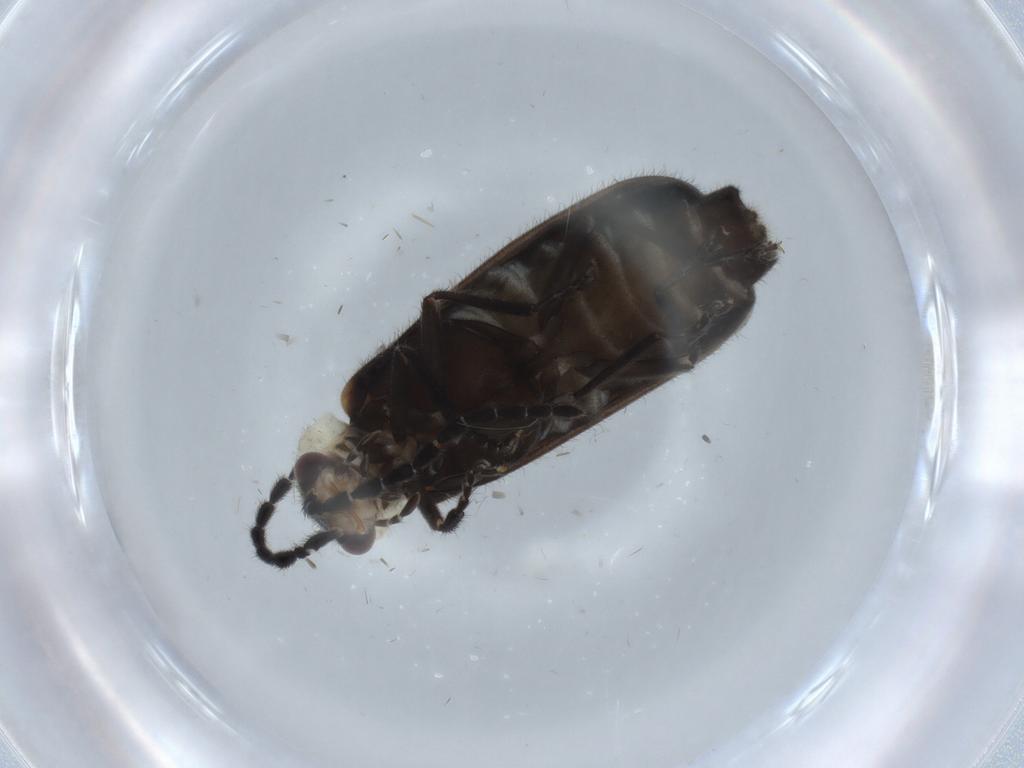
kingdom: Animalia
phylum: Arthropoda
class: Insecta
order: Coleoptera
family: Cantharidae
